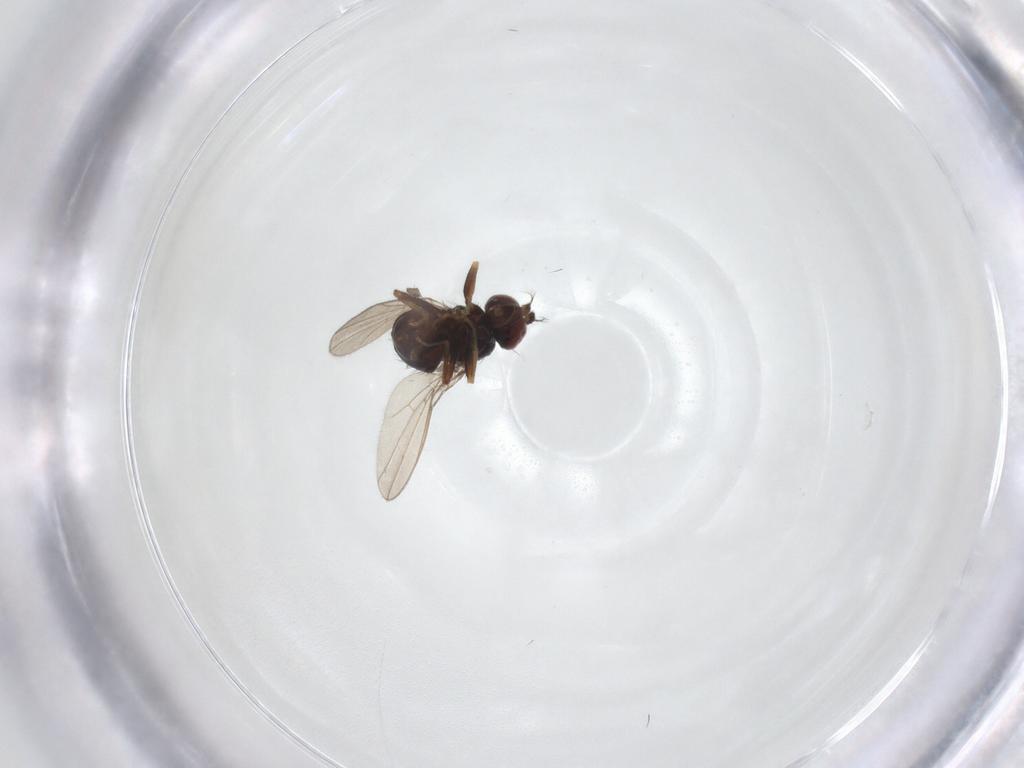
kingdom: Animalia
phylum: Arthropoda
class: Insecta
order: Diptera
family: Ephydridae
